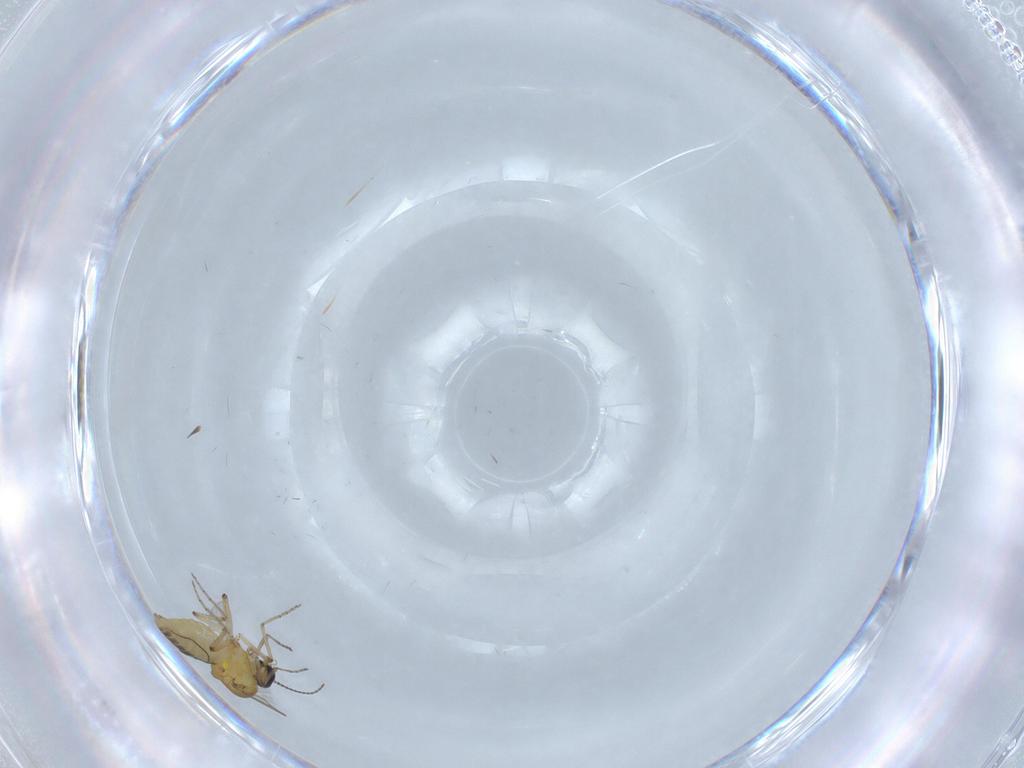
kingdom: Animalia
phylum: Arthropoda
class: Insecta
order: Diptera
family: Ceratopogonidae
